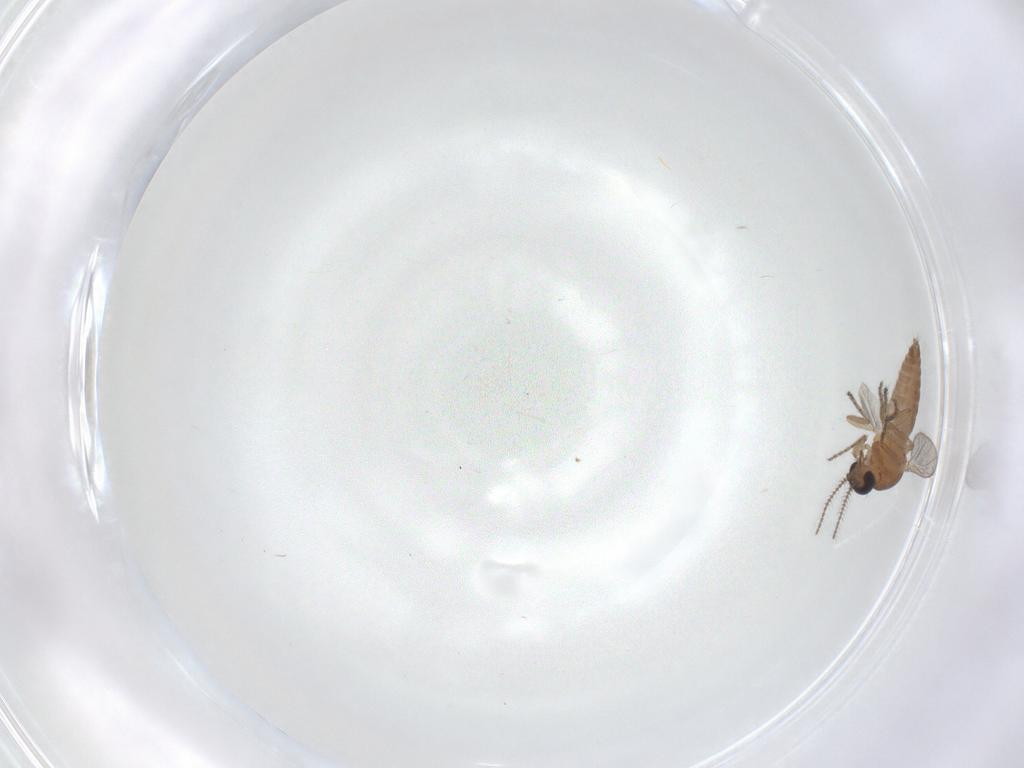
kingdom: Animalia
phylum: Arthropoda
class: Insecta
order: Diptera
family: Ceratopogonidae
